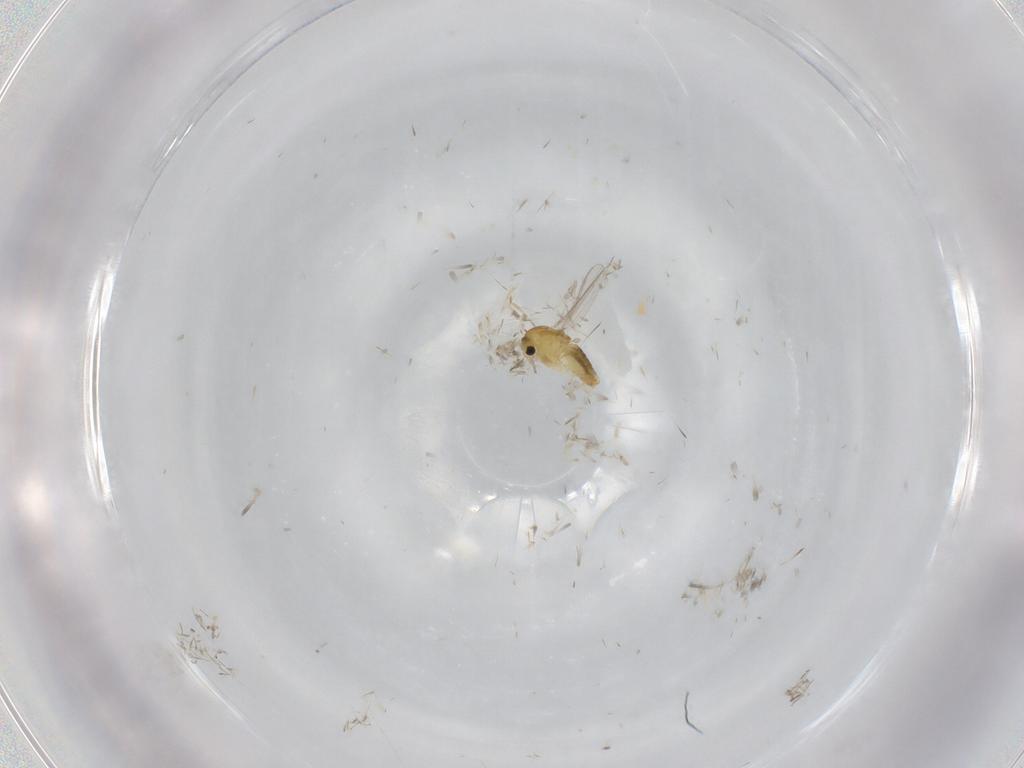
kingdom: Animalia
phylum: Arthropoda
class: Insecta
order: Diptera
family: Chironomidae
